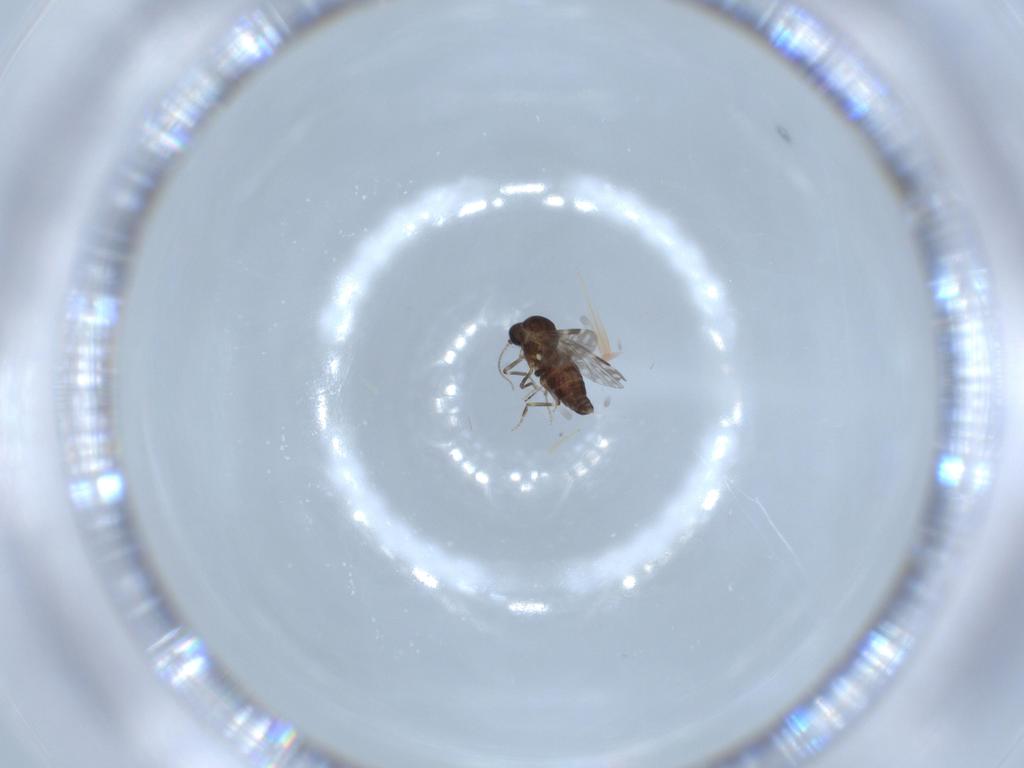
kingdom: Animalia
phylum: Arthropoda
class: Insecta
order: Diptera
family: Ceratopogonidae
